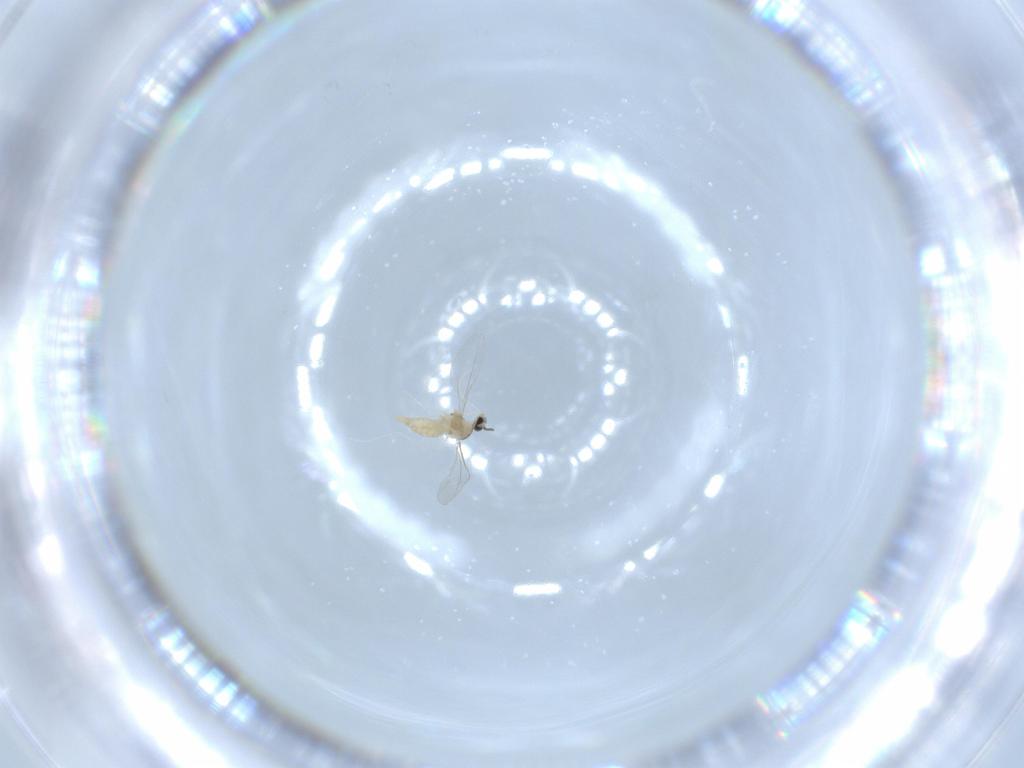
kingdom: Animalia
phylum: Arthropoda
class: Insecta
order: Diptera
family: Cecidomyiidae
